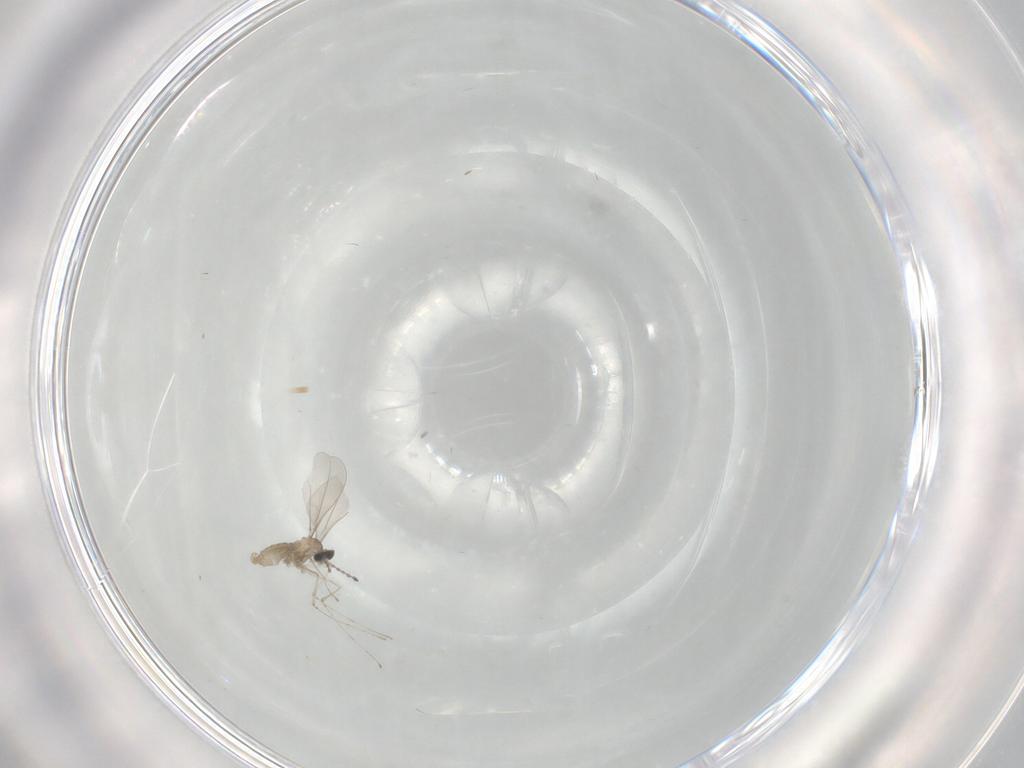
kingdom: Animalia
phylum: Arthropoda
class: Insecta
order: Diptera
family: Cecidomyiidae
